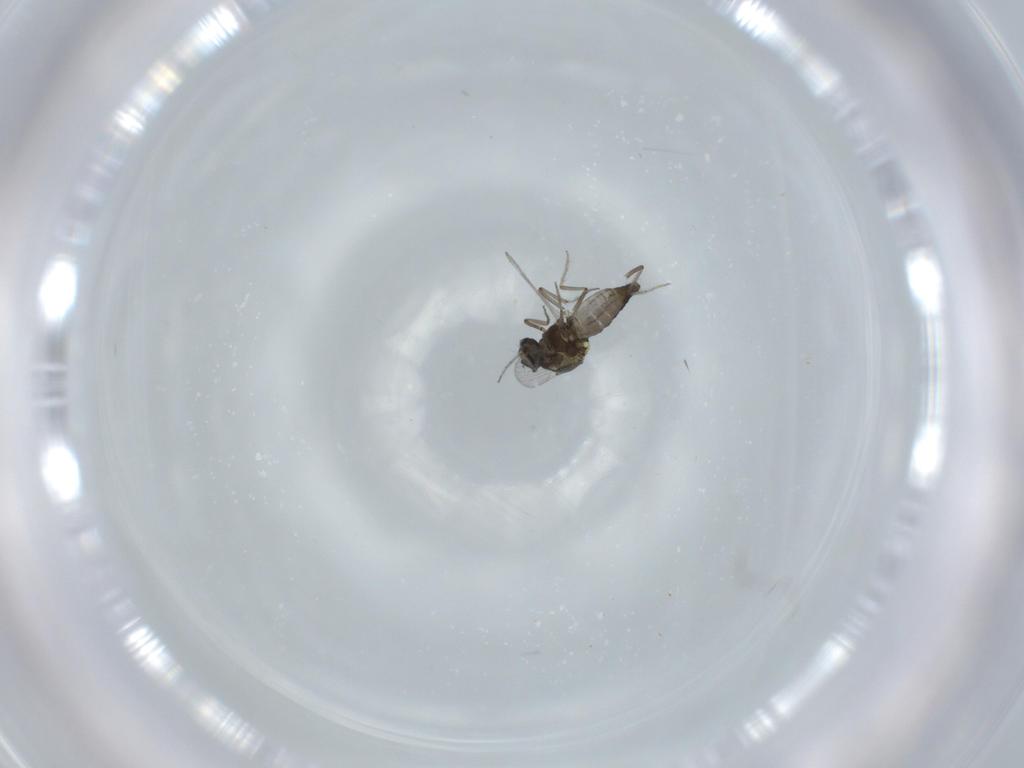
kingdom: Animalia
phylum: Arthropoda
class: Insecta
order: Diptera
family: Ceratopogonidae
